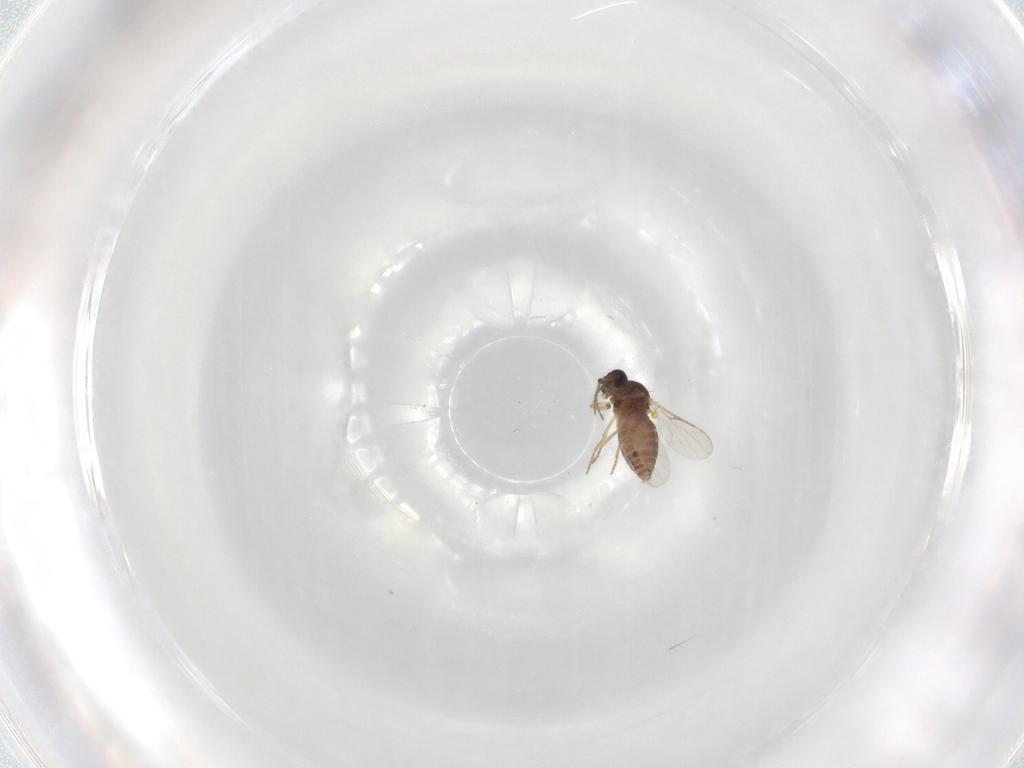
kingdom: Animalia
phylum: Arthropoda
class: Insecta
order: Diptera
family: Ceratopogonidae
